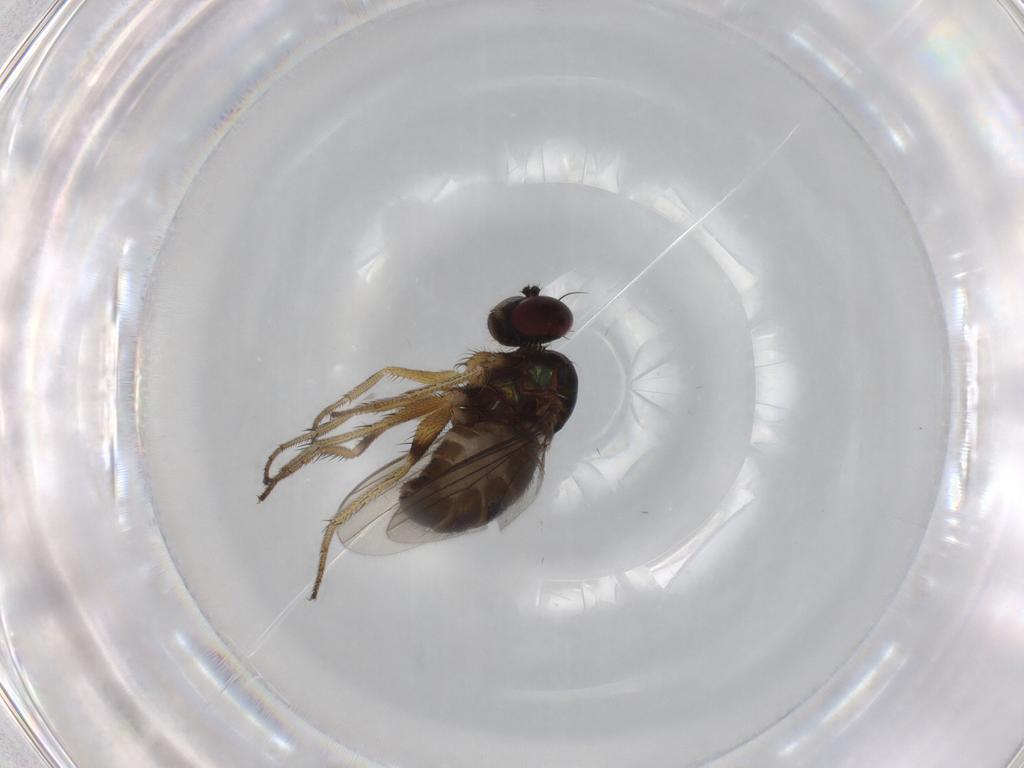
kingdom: Animalia
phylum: Arthropoda
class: Insecta
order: Diptera
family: Dolichopodidae
